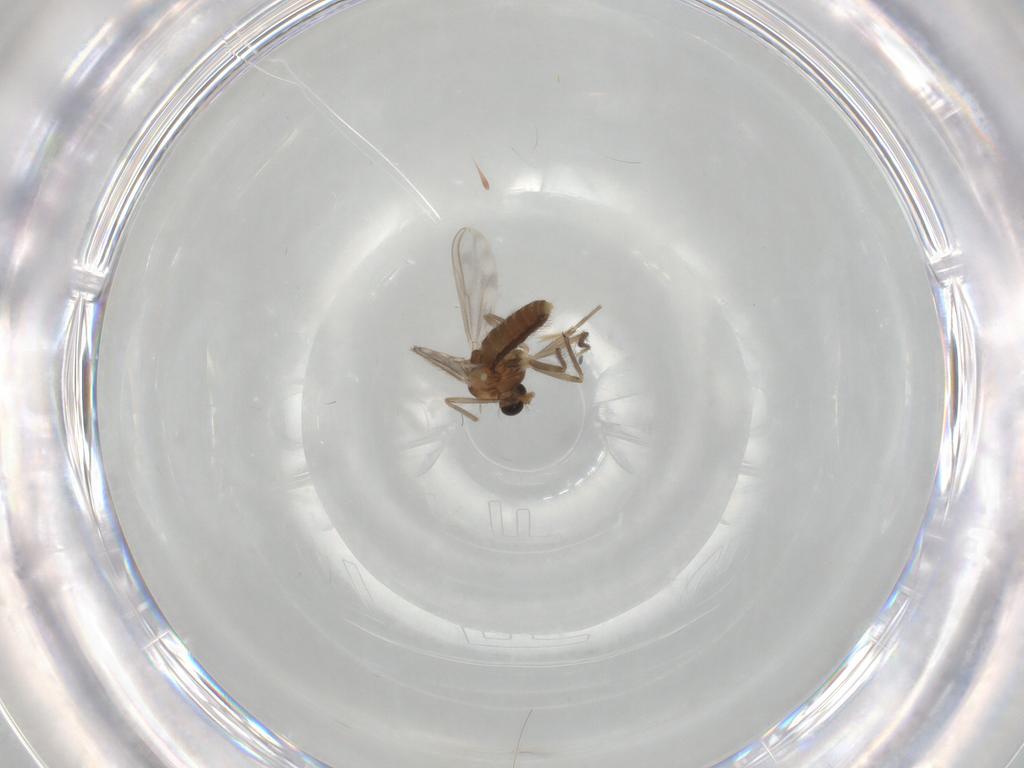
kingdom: Animalia
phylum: Arthropoda
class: Insecta
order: Diptera
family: Chironomidae
